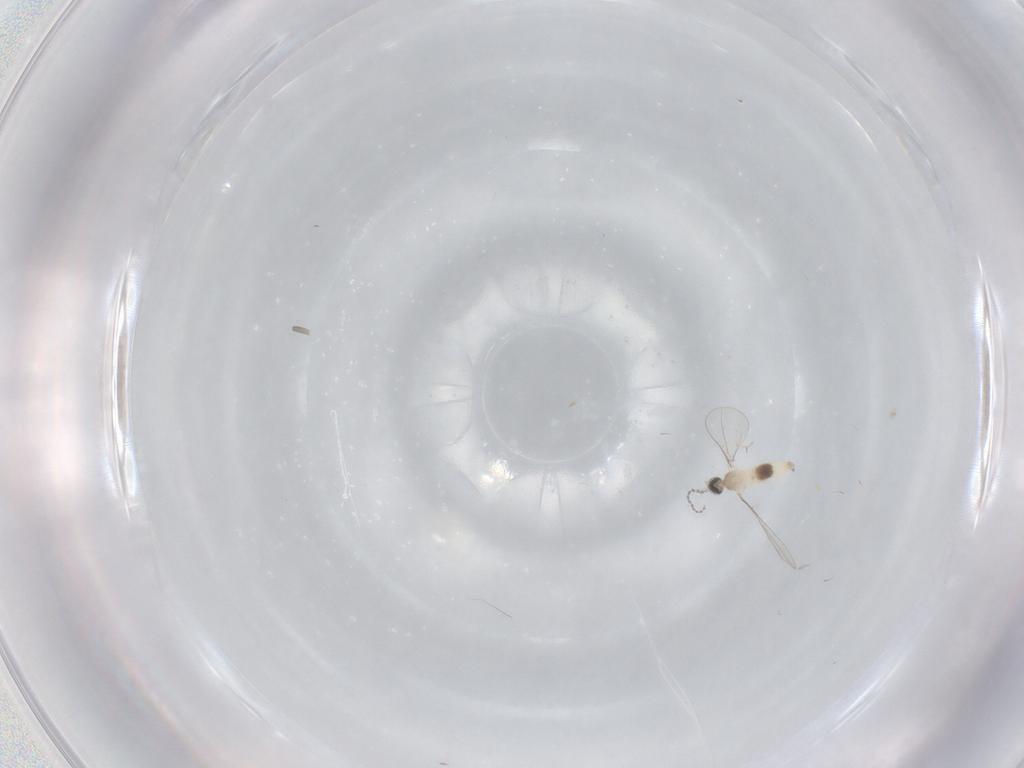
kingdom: Animalia
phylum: Arthropoda
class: Insecta
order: Diptera
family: Cecidomyiidae
